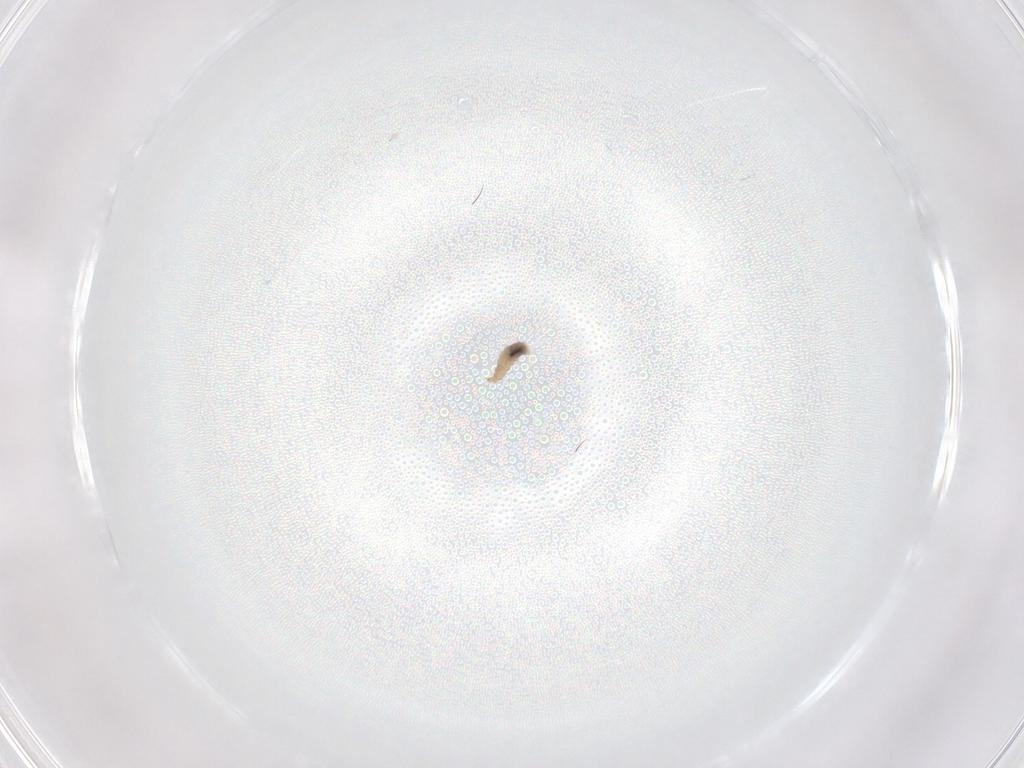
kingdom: Animalia
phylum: Arthropoda
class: Insecta
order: Diptera
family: Cecidomyiidae
